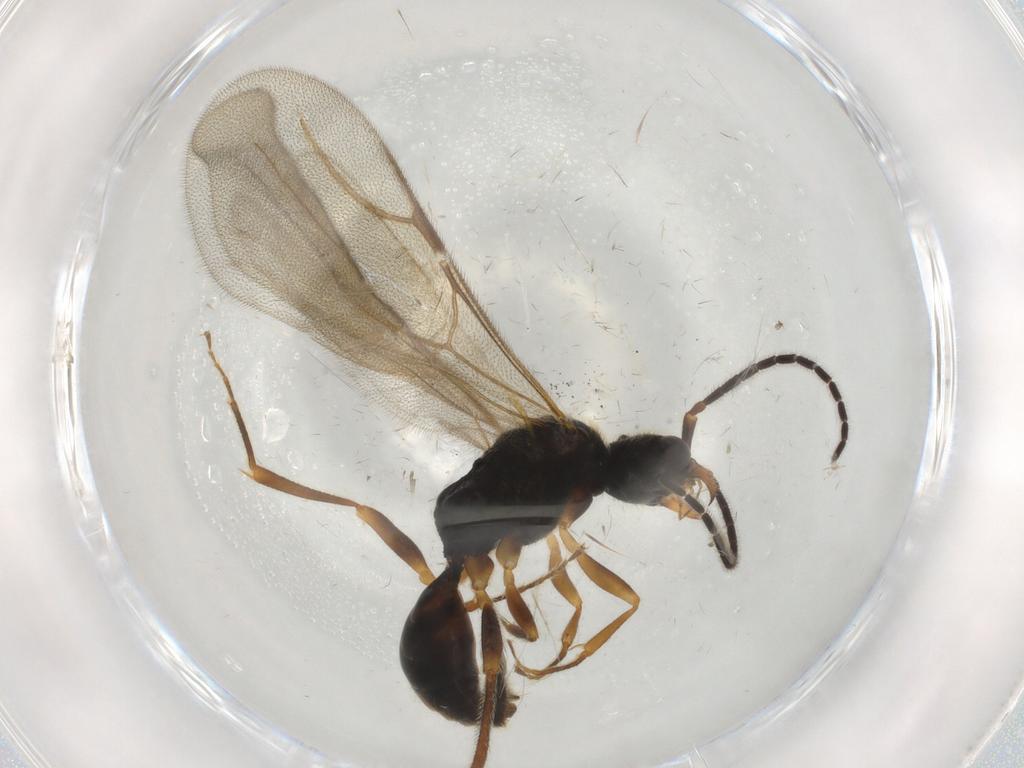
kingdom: Animalia
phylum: Arthropoda
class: Insecta
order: Hymenoptera
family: Bethylidae
